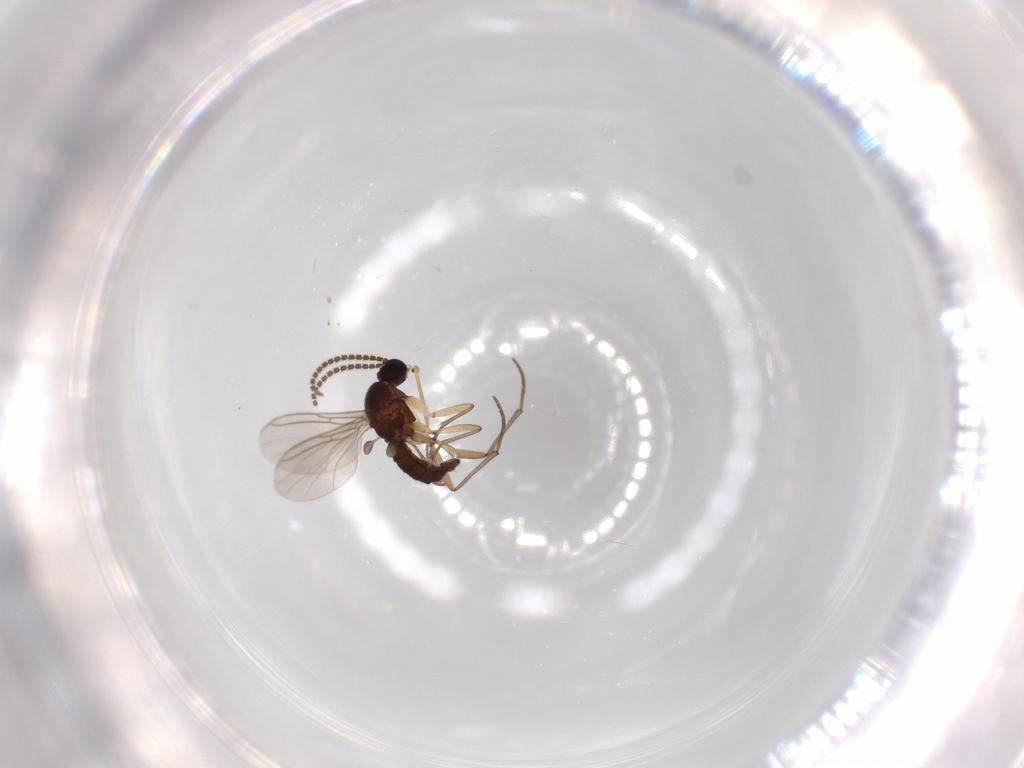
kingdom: Animalia
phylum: Arthropoda
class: Insecta
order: Diptera
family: Sciaridae
